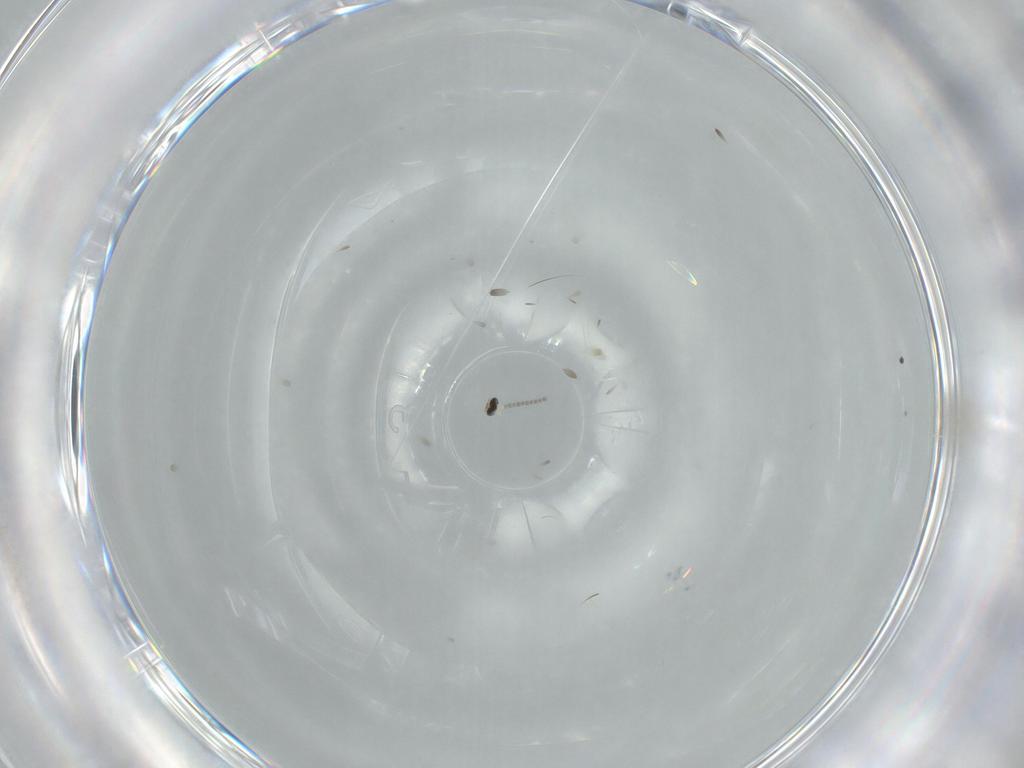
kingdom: Animalia
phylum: Arthropoda
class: Insecta
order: Diptera
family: Cecidomyiidae
